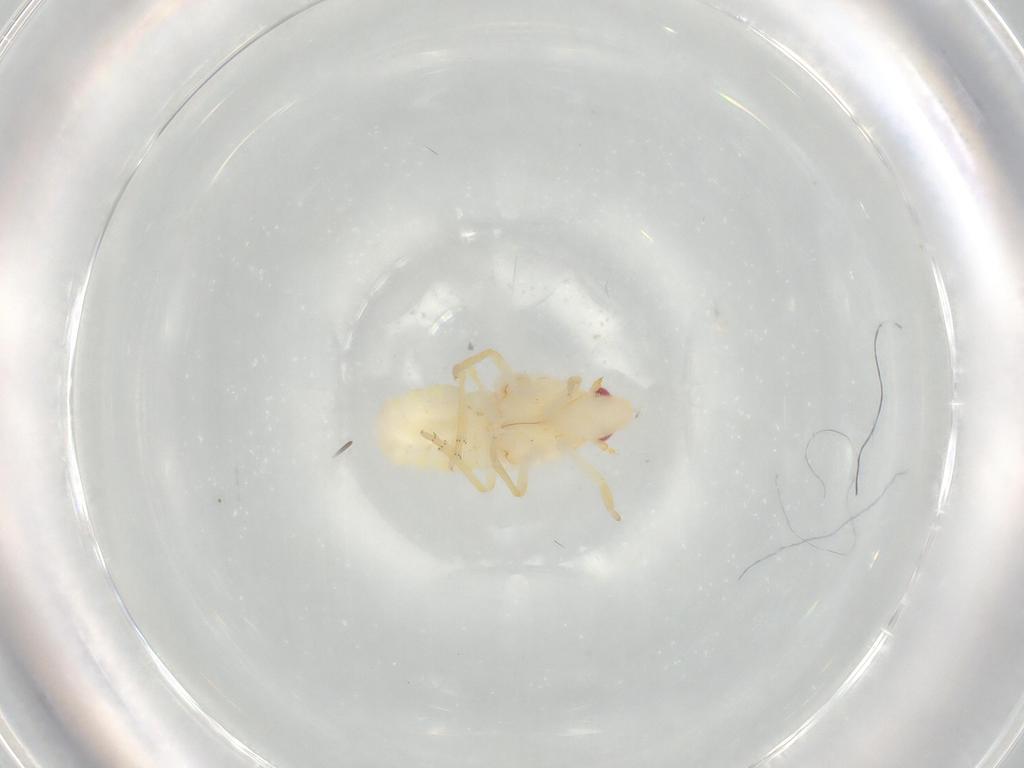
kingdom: Animalia
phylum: Arthropoda
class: Insecta
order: Hemiptera
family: Flatidae
